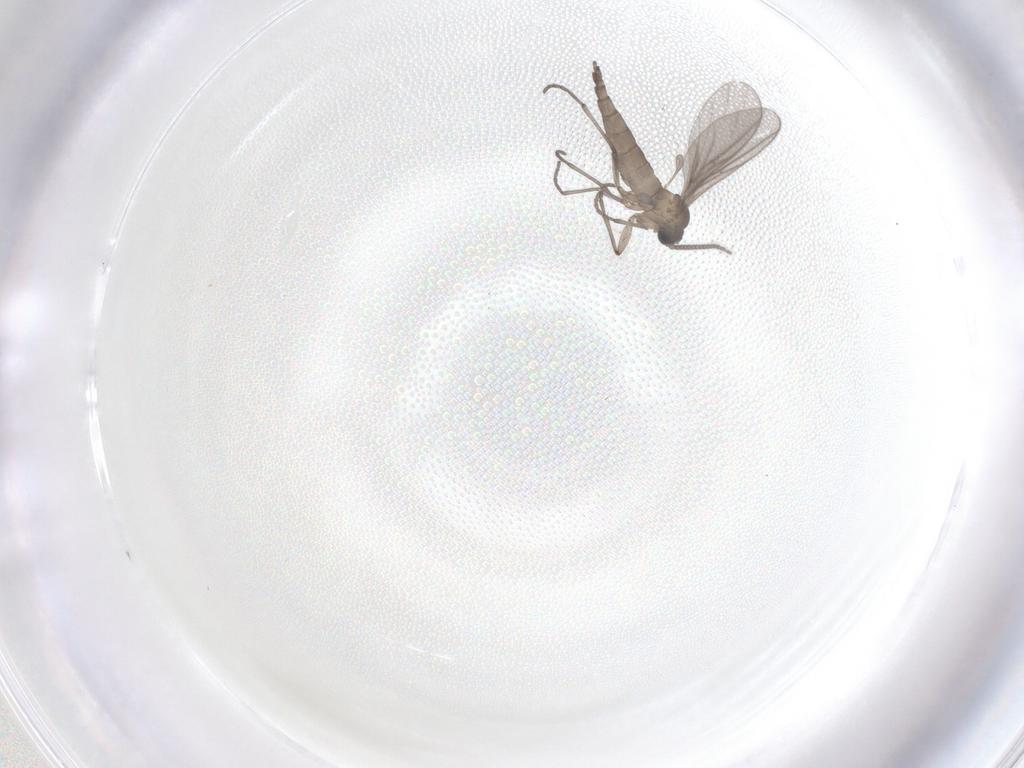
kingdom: Animalia
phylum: Arthropoda
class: Insecta
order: Diptera
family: Sciaridae
